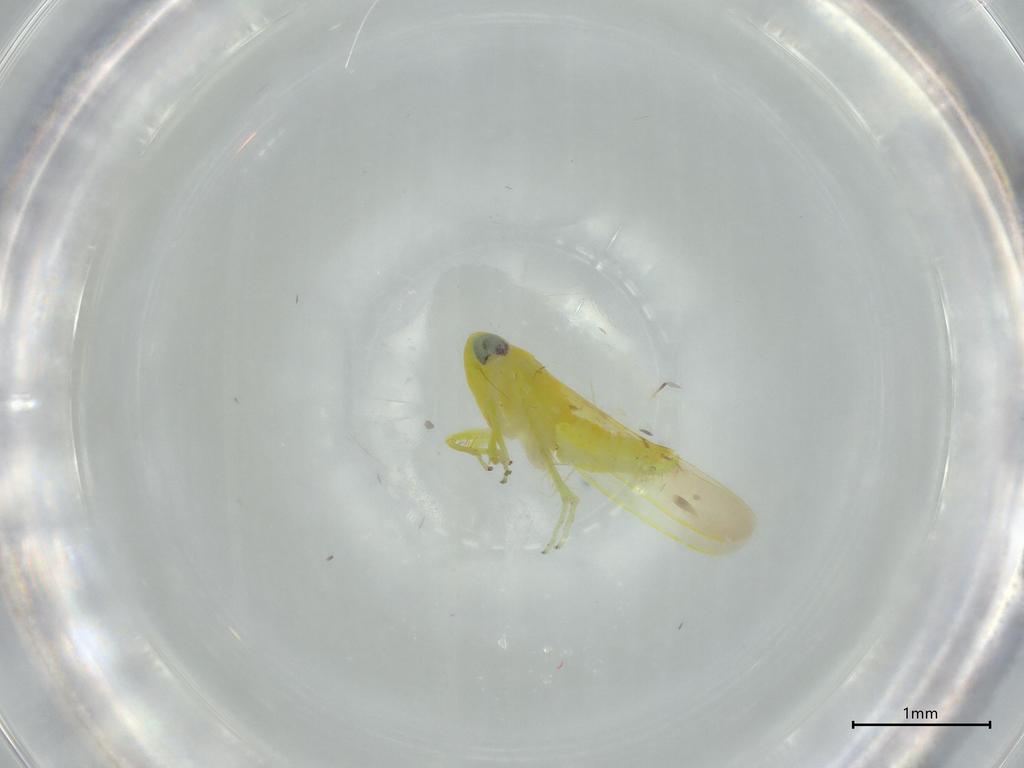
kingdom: Animalia
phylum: Arthropoda
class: Insecta
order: Hemiptera
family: Cicadellidae
